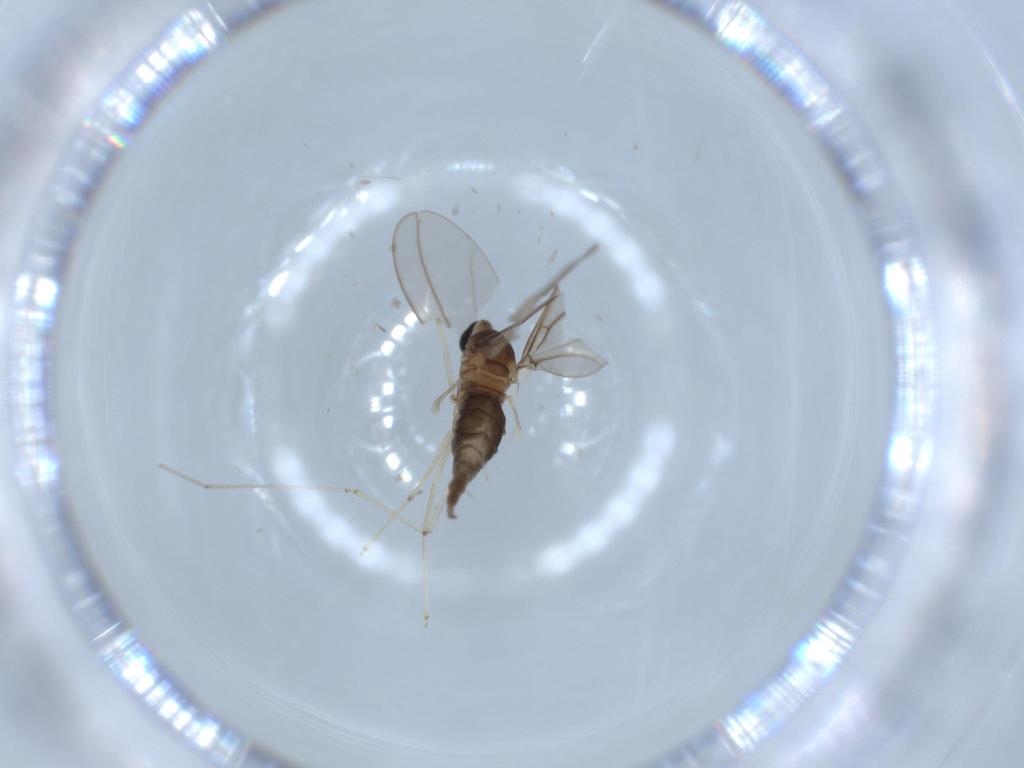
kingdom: Animalia
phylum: Arthropoda
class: Insecta
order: Diptera
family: Cecidomyiidae
